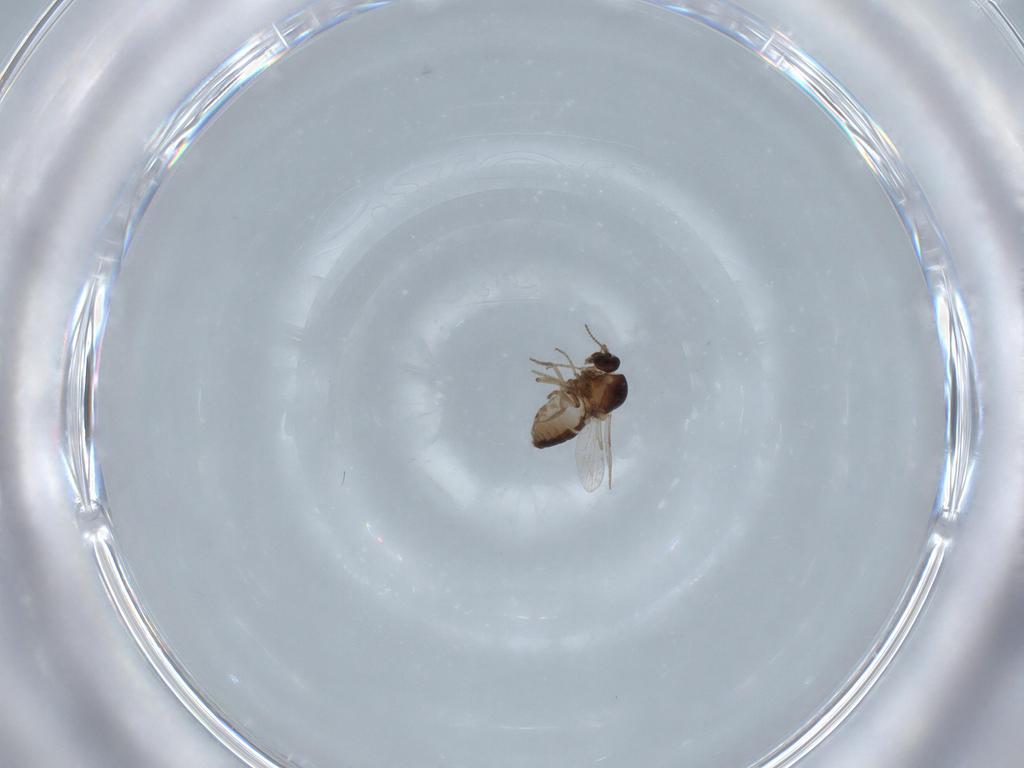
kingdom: Animalia
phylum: Arthropoda
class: Insecta
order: Diptera
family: Ceratopogonidae
